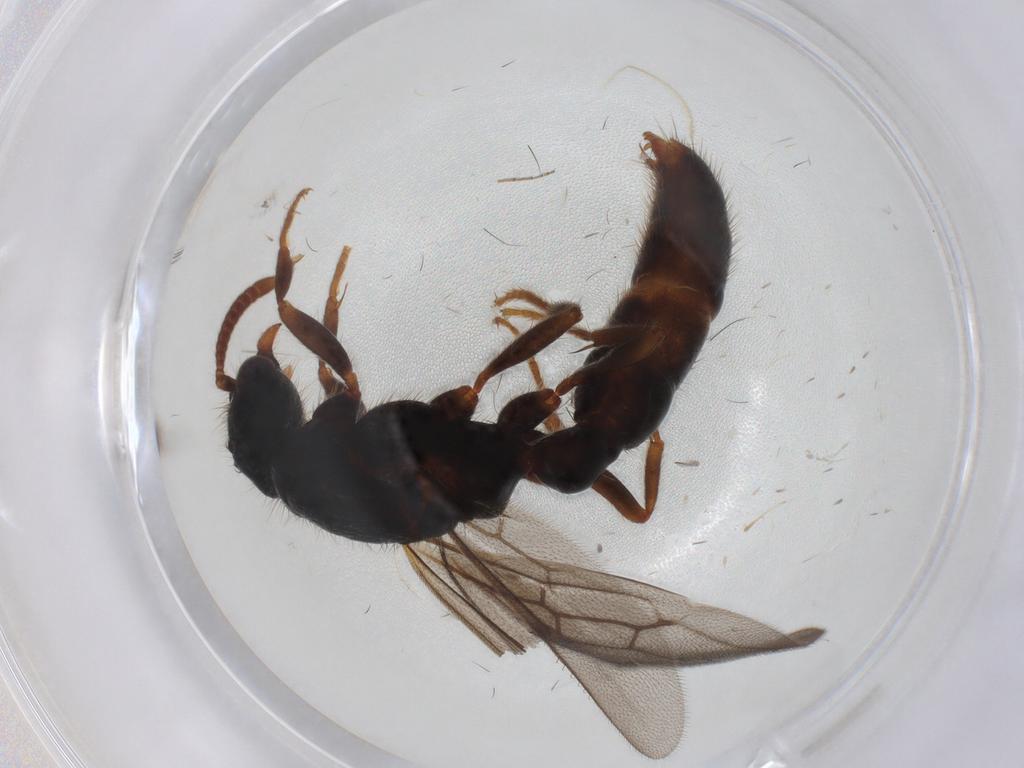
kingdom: Animalia
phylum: Arthropoda
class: Insecta
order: Hymenoptera
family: Formicidae
